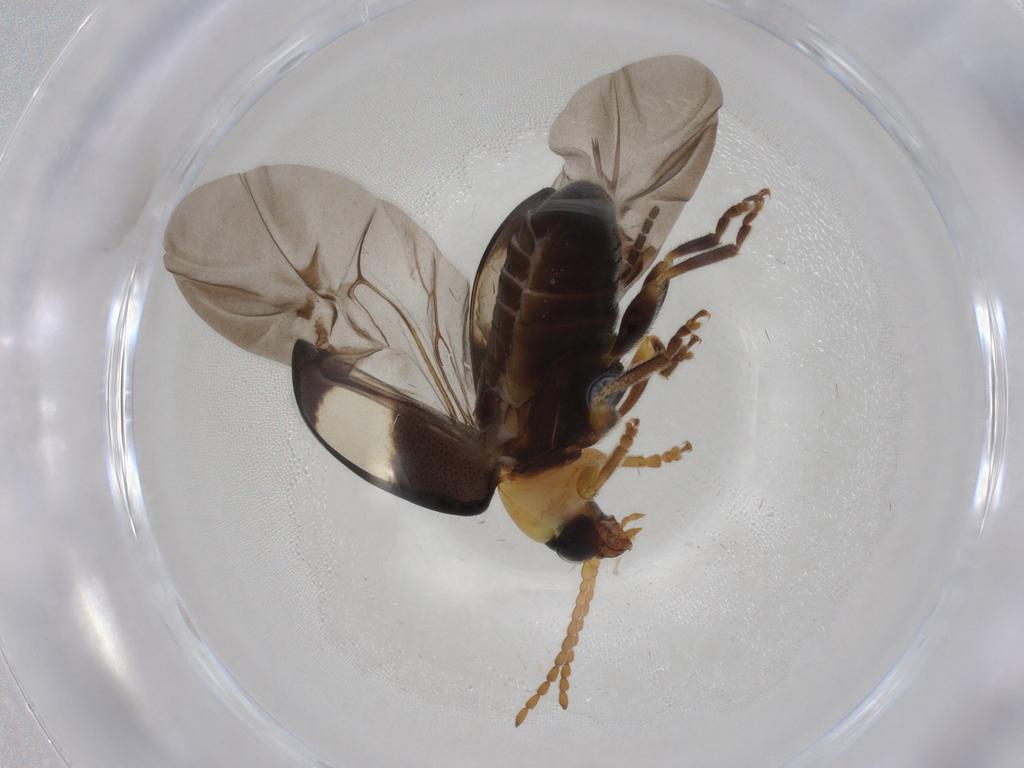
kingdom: Animalia
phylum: Arthropoda
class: Insecta
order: Coleoptera
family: Chrysomelidae
